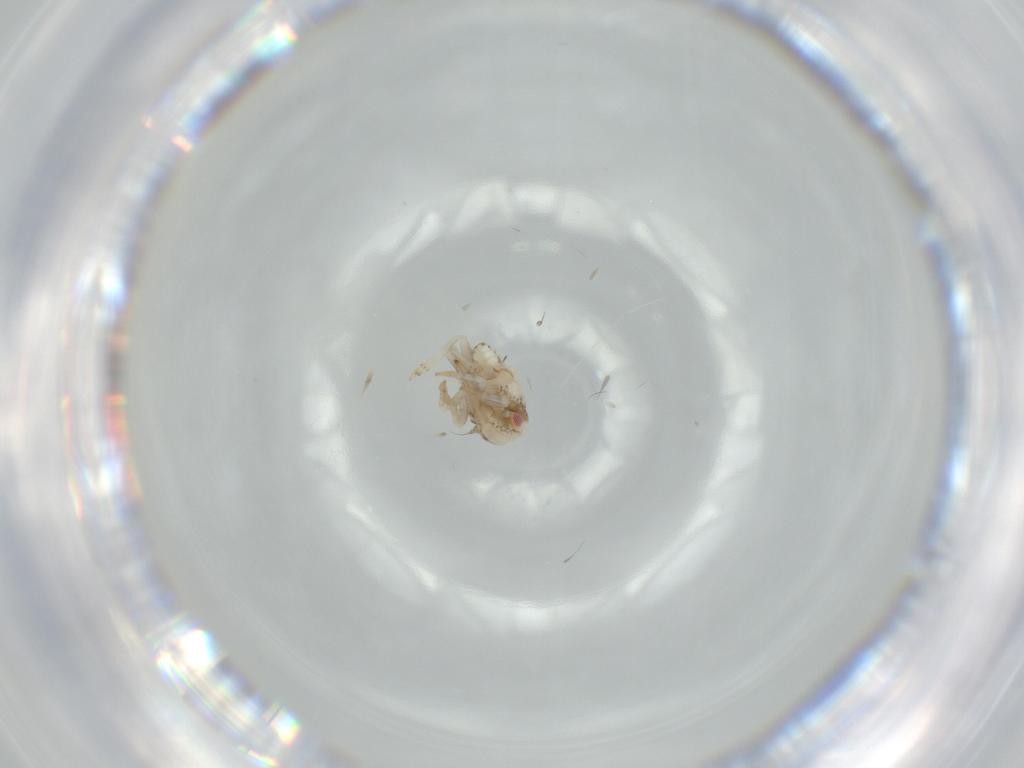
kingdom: Animalia
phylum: Arthropoda
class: Insecta
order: Hemiptera
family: Acanaloniidae
